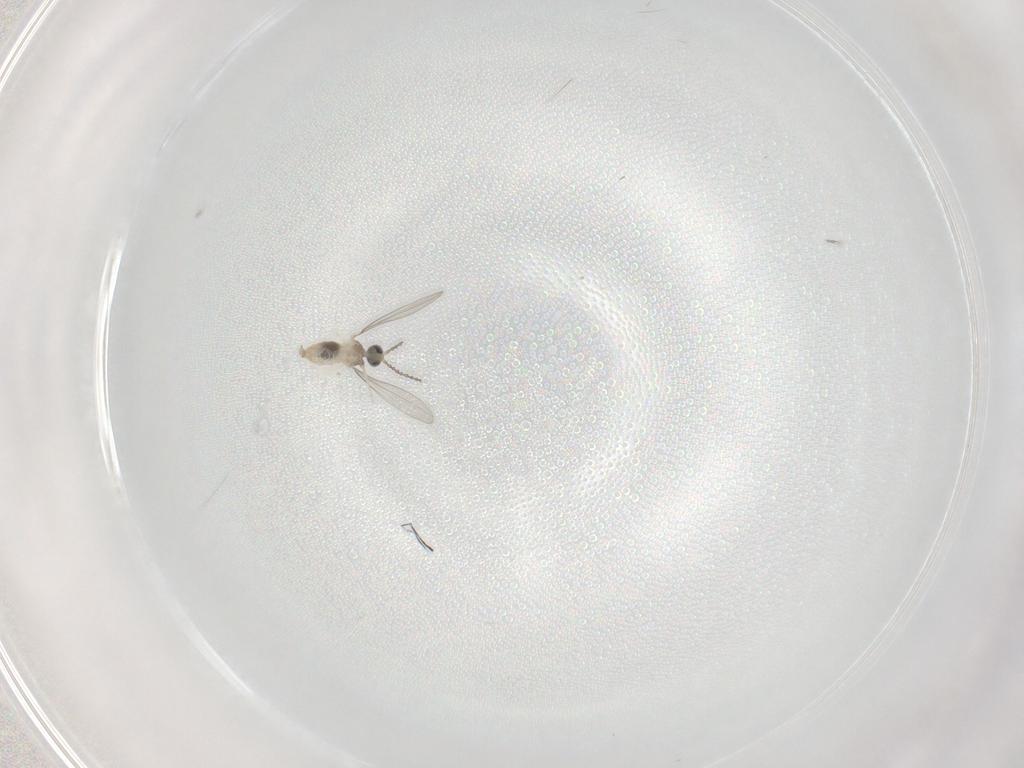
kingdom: Animalia
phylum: Arthropoda
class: Insecta
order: Diptera
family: Cecidomyiidae
